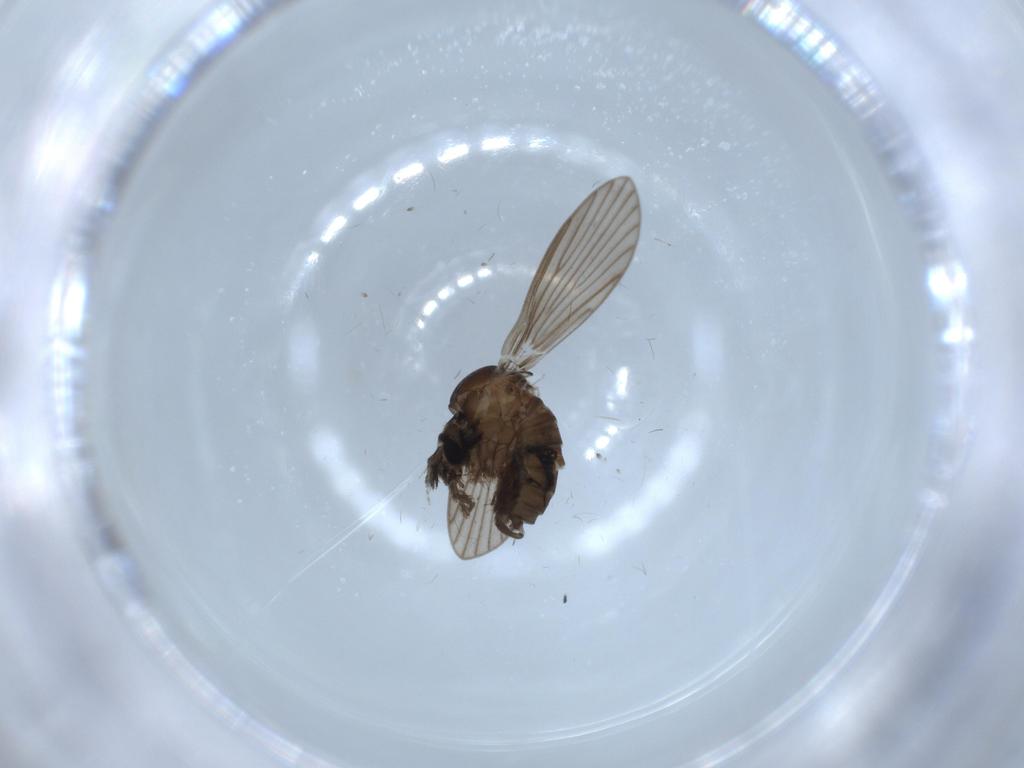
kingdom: Animalia
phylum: Arthropoda
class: Insecta
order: Diptera
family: Psychodidae
